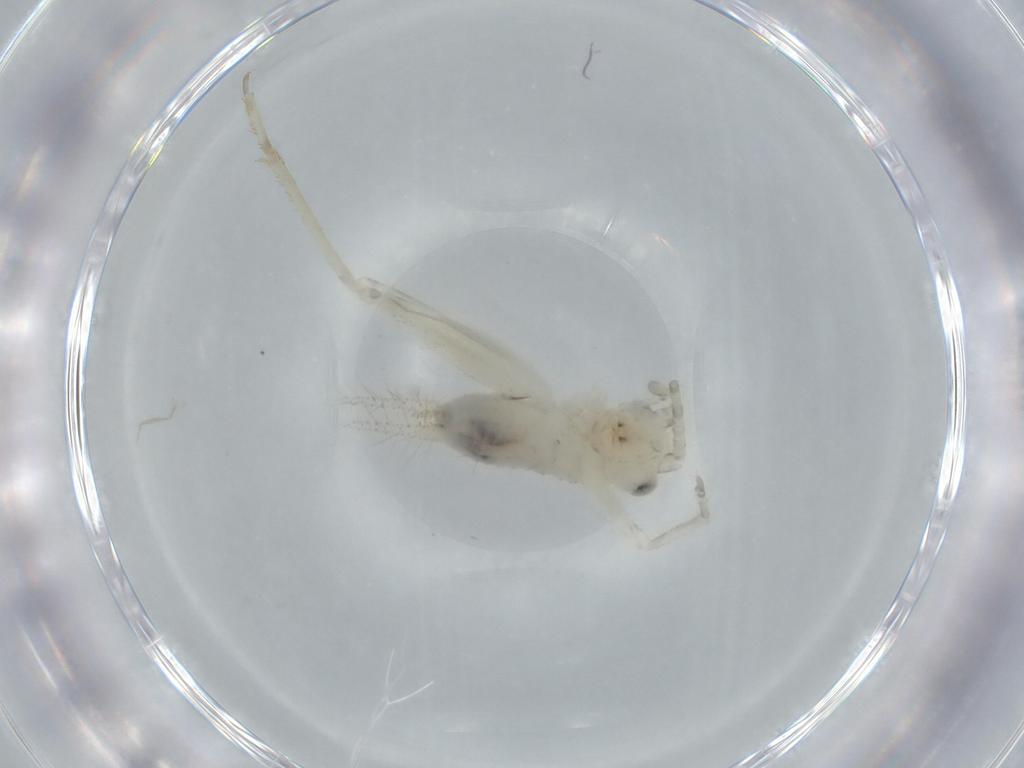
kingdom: Animalia
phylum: Arthropoda
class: Insecta
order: Orthoptera
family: Trigonidiidae
